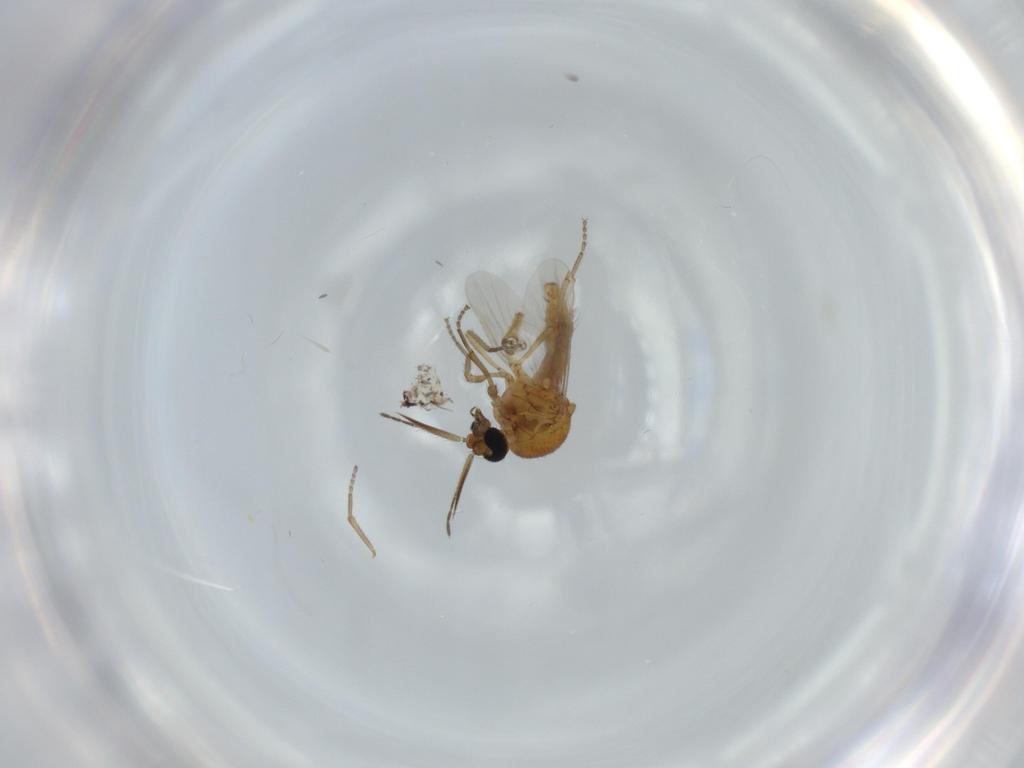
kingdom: Animalia
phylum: Arthropoda
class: Insecta
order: Diptera
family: Ceratopogonidae
